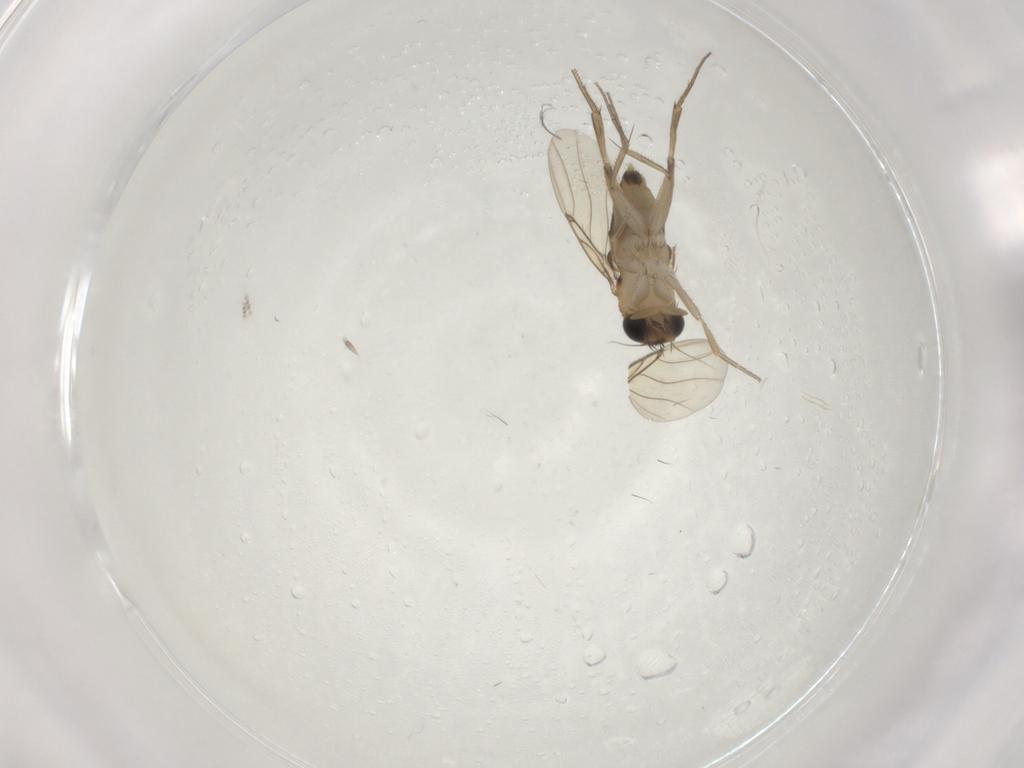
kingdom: Animalia
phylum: Arthropoda
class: Insecta
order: Diptera
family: Phoridae
